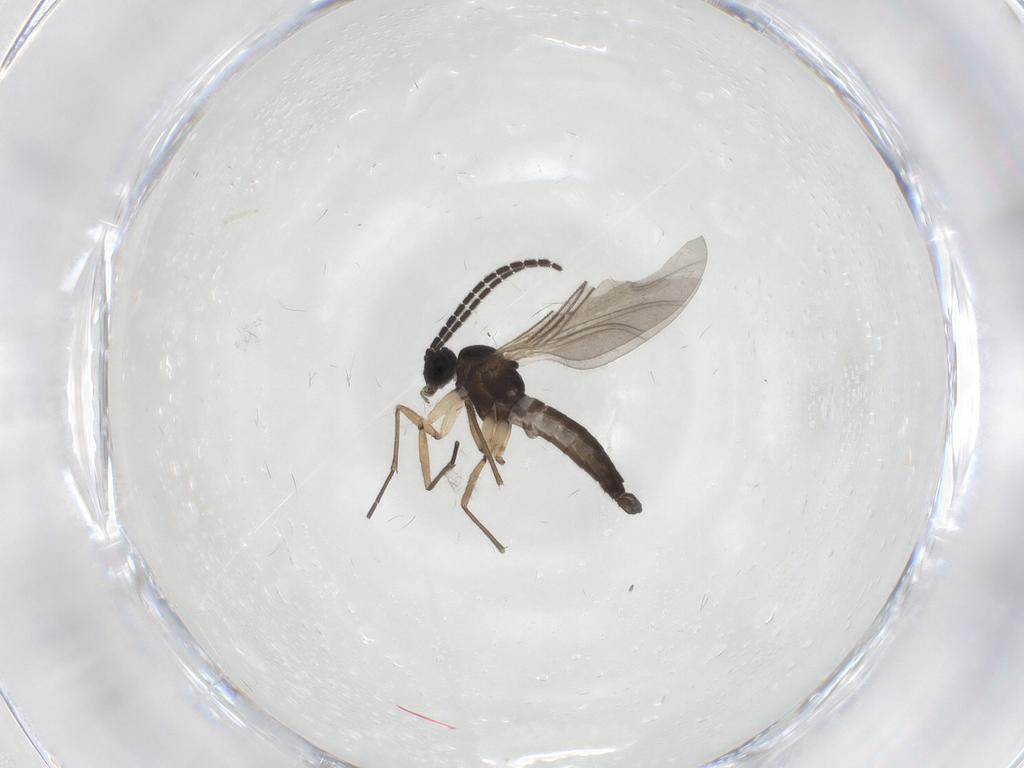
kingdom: Animalia
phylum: Arthropoda
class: Insecta
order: Diptera
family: Sciaridae
